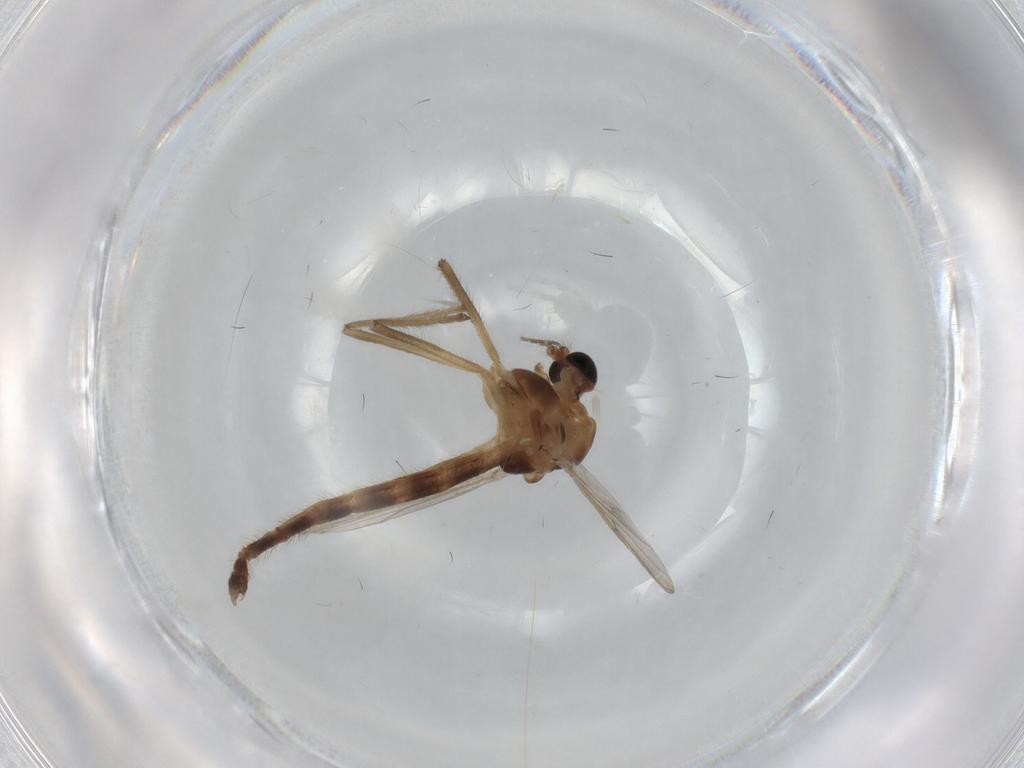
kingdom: Animalia
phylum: Arthropoda
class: Insecta
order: Diptera
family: Chironomidae
